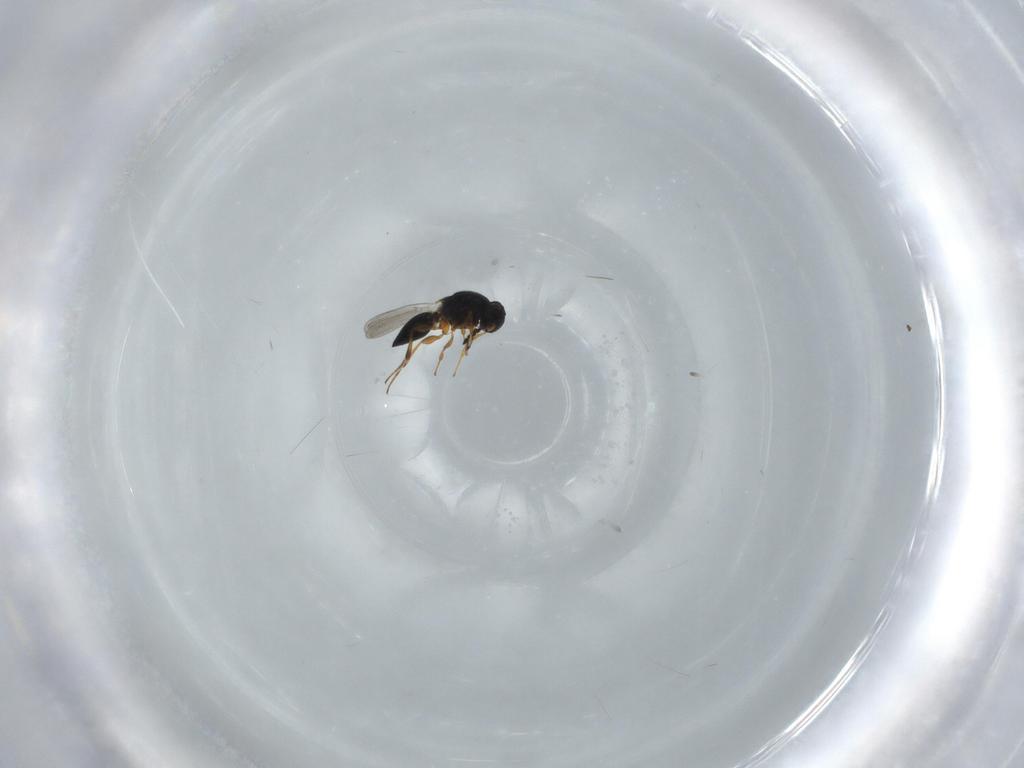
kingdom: Animalia
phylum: Arthropoda
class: Insecta
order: Hymenoptera
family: Platygastridae
